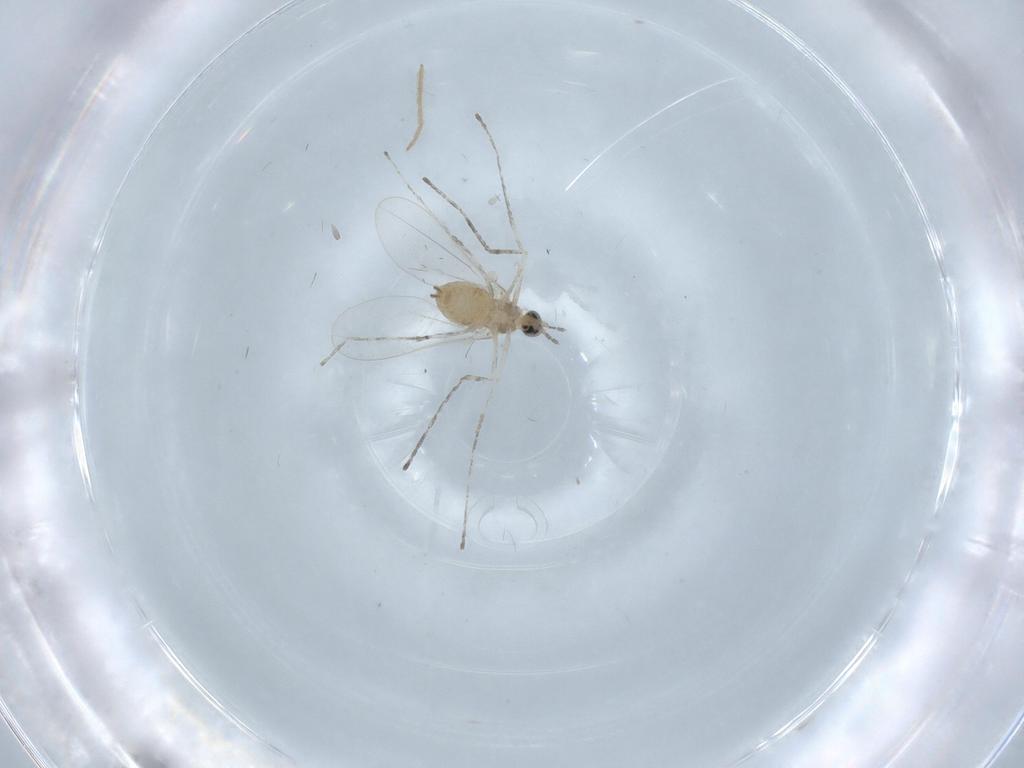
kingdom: Animalia
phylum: Arthropoda
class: Insecta
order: Diptera
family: Cecidomyiidae
